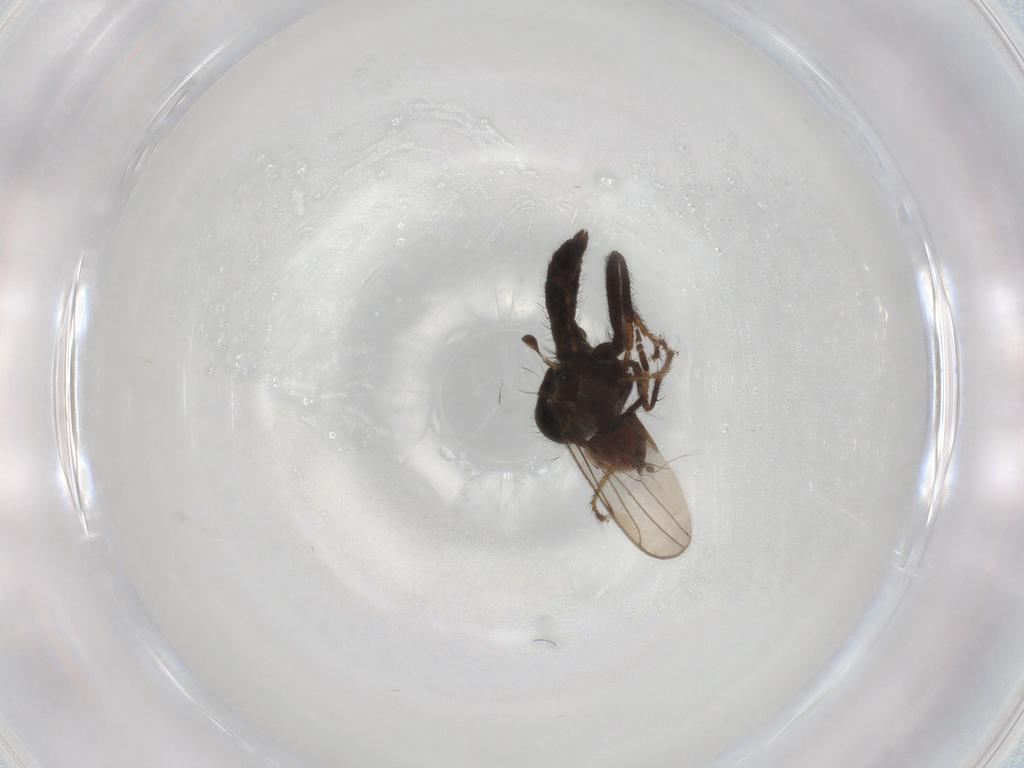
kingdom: Animalia
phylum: Arthropoda
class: Insecta
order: Diptera
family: Hybotidae
